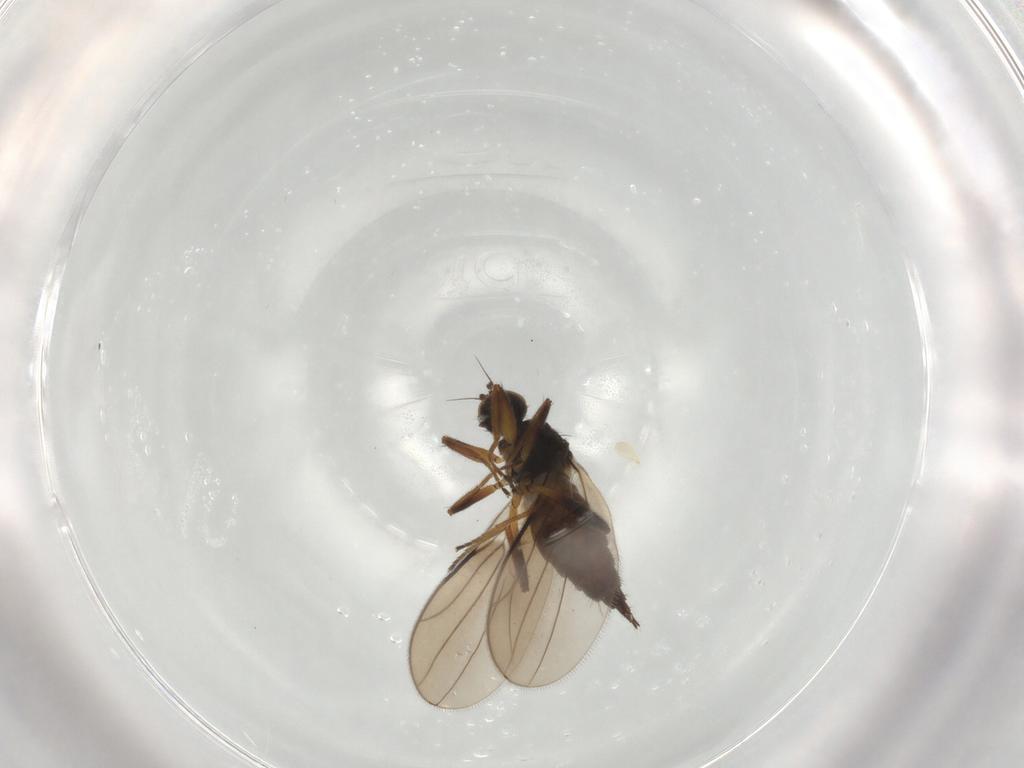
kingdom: Animalia
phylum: Arthropoda
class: Insecta
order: Diptera
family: Hybotidae
